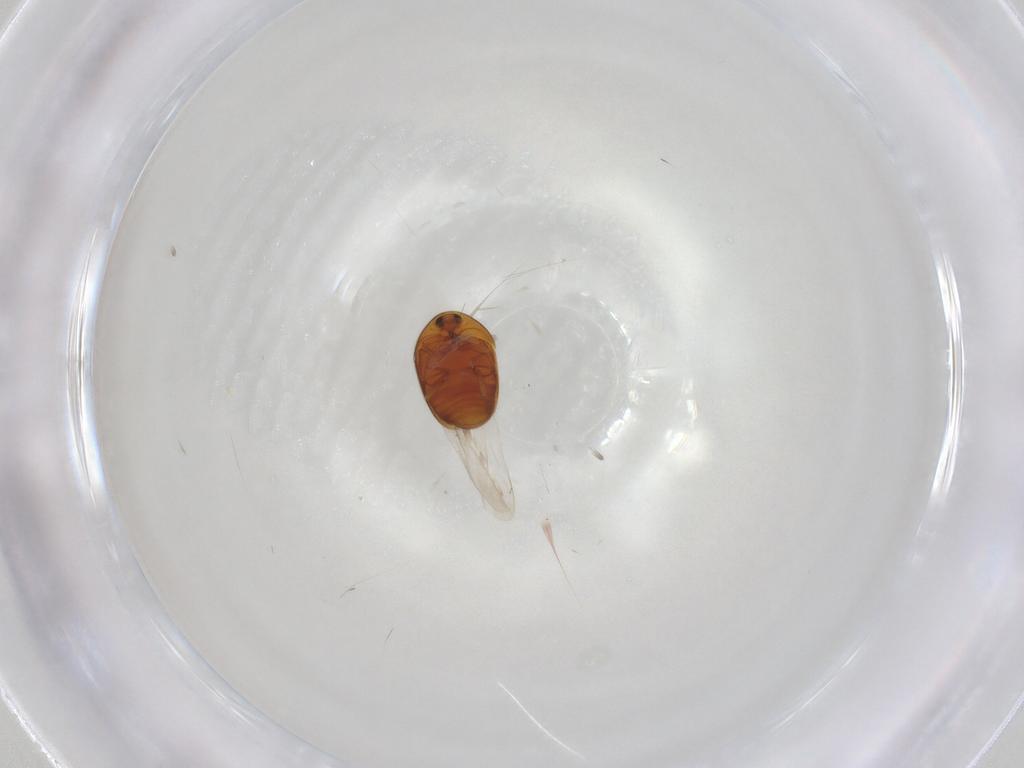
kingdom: Animalia
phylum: Arthropoda
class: Insecta
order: Coleoptera
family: Corylophidae
